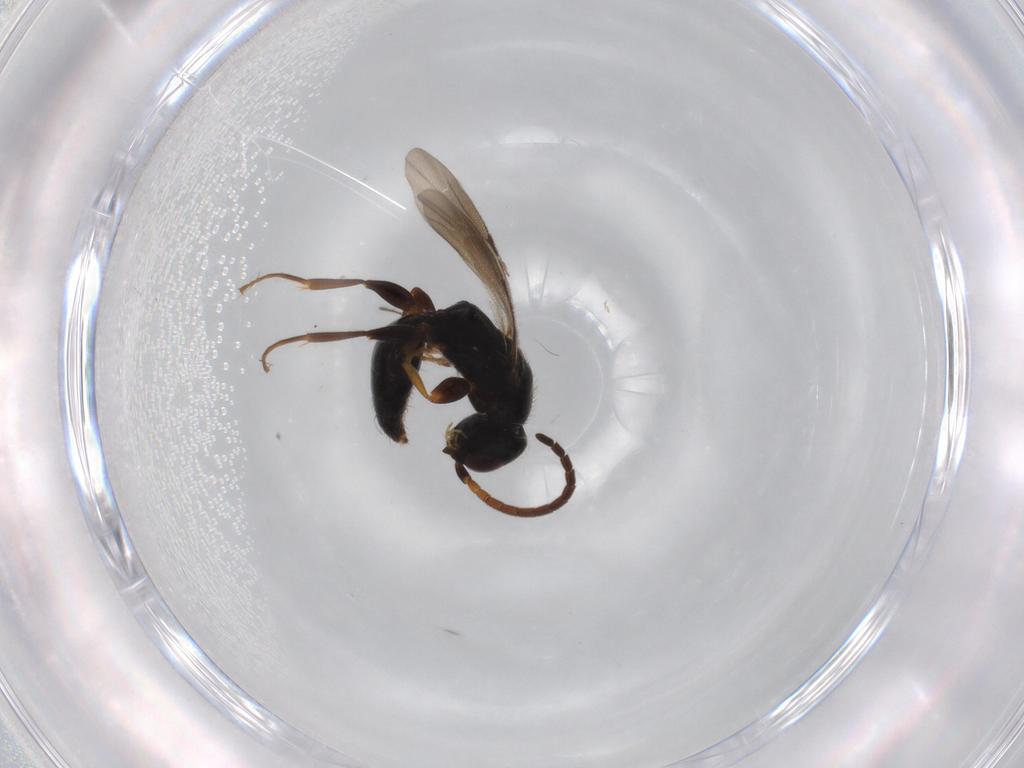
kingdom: Animalia
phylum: Arthropoda
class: Insecta
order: Hymenoptera
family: Bethylidae
